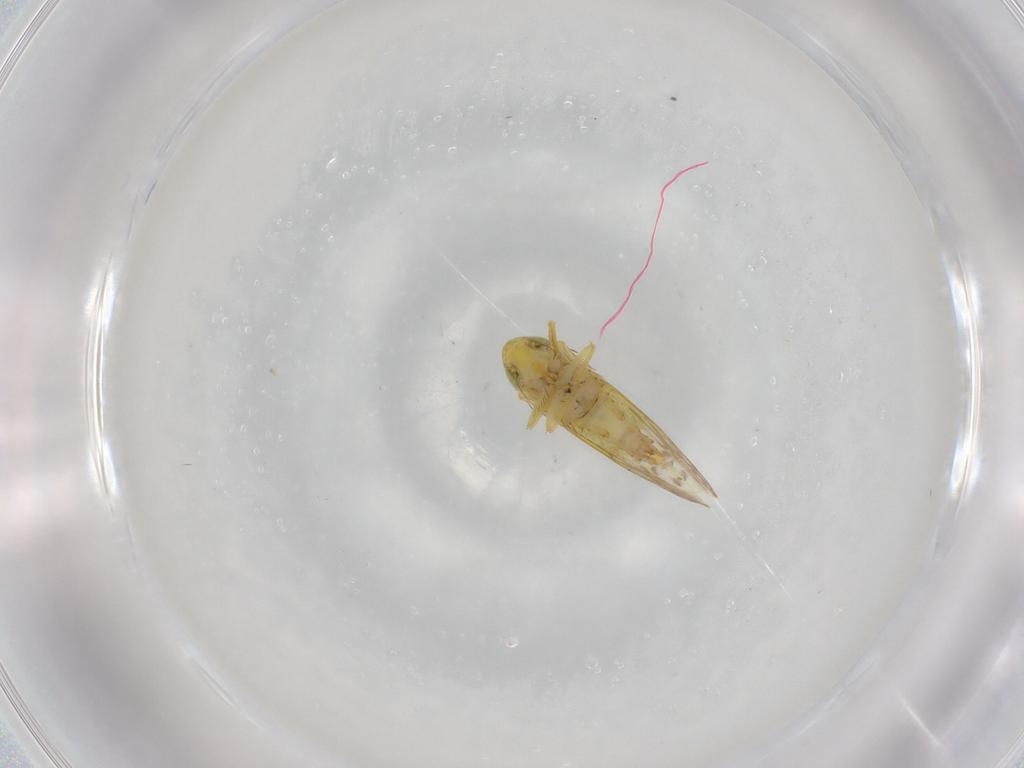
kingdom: Animalia
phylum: Arthropoda
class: Insecta
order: Hemiptera
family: Cicadellidae
